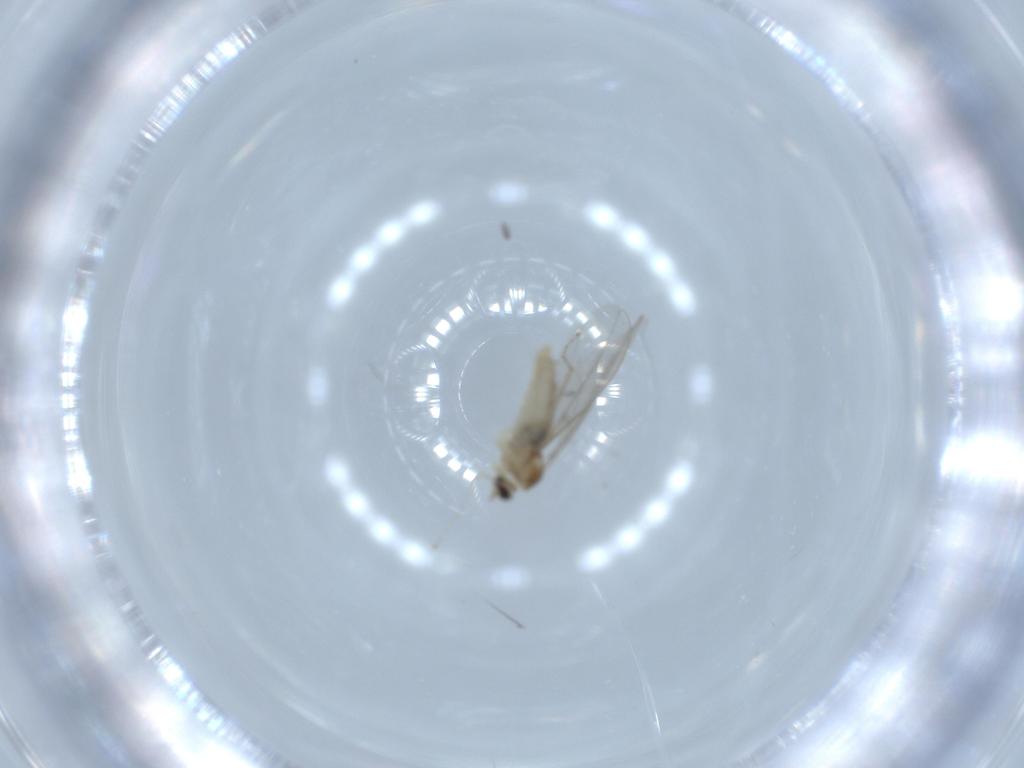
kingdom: Animalia
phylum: Arthropoda
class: Insecta
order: Diptera
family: Cecidomyiidae
